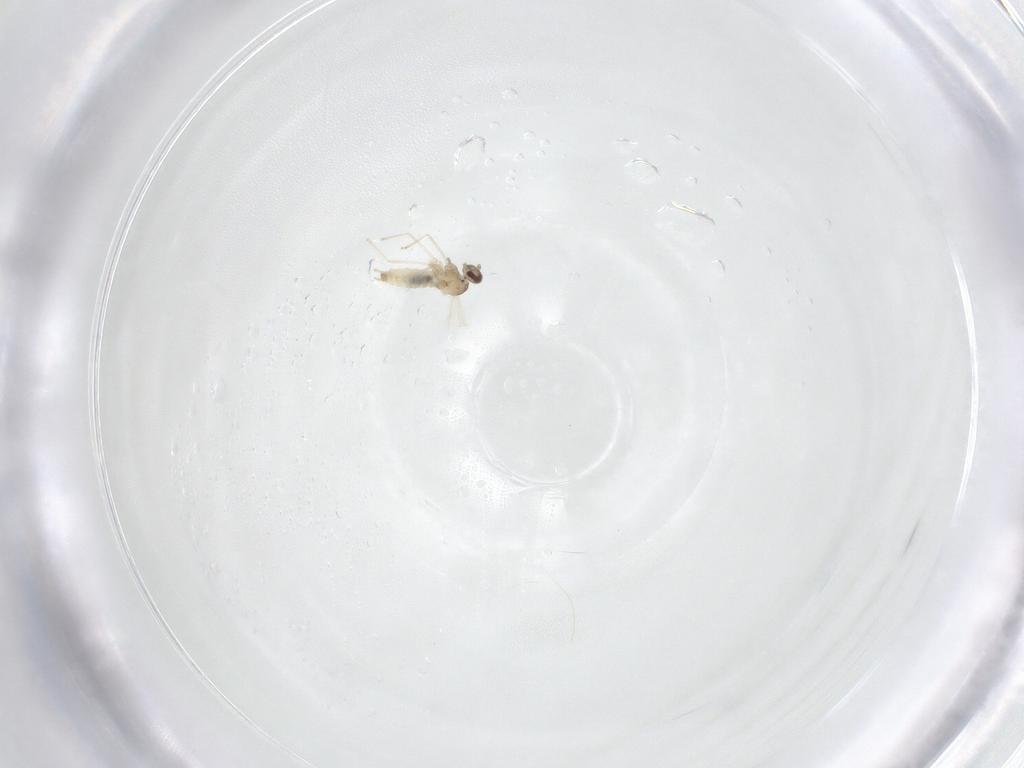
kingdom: Animalia
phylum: Arthropoda
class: Insecta
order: Diptera
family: Cecidomyiidae
